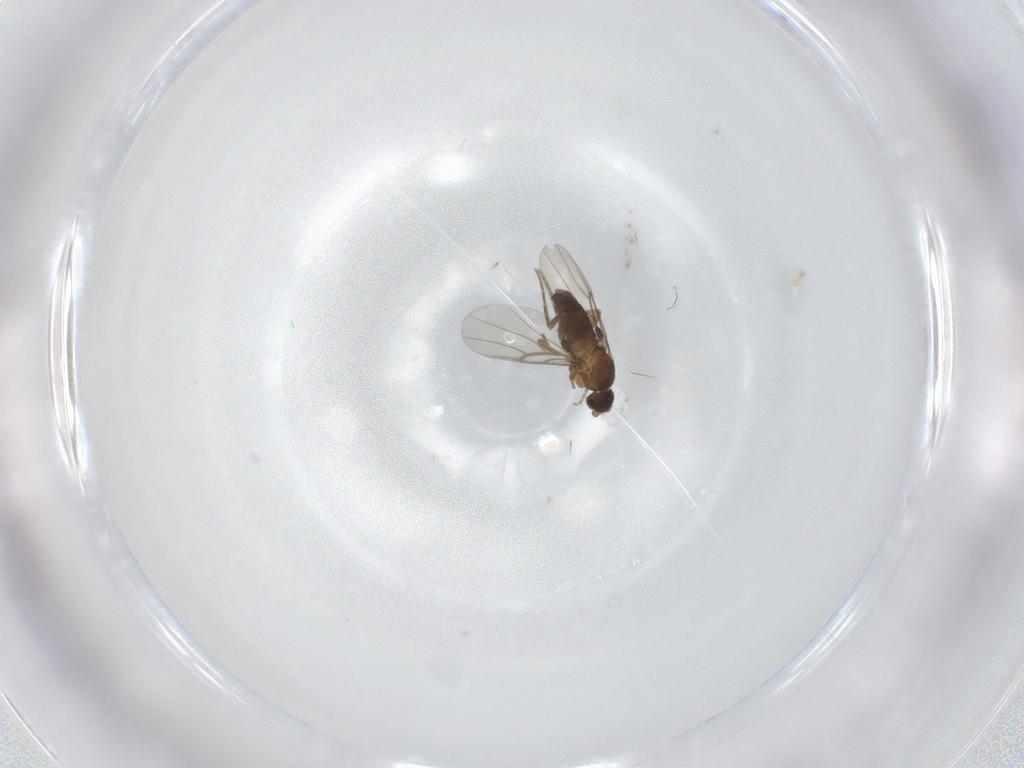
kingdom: Animalia
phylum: Arthropoda
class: Insecta
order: Diptera
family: Phoridae
